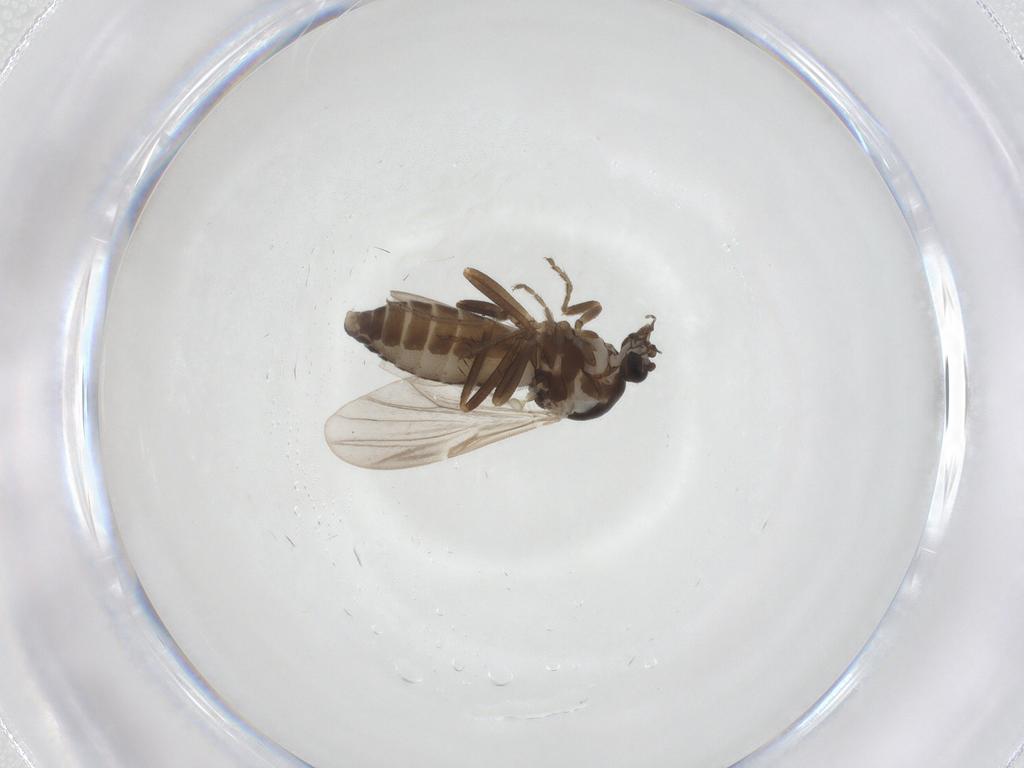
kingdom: Animalia
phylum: Arthropoda
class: Insecta
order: Diptera
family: Ceratopogonidae
